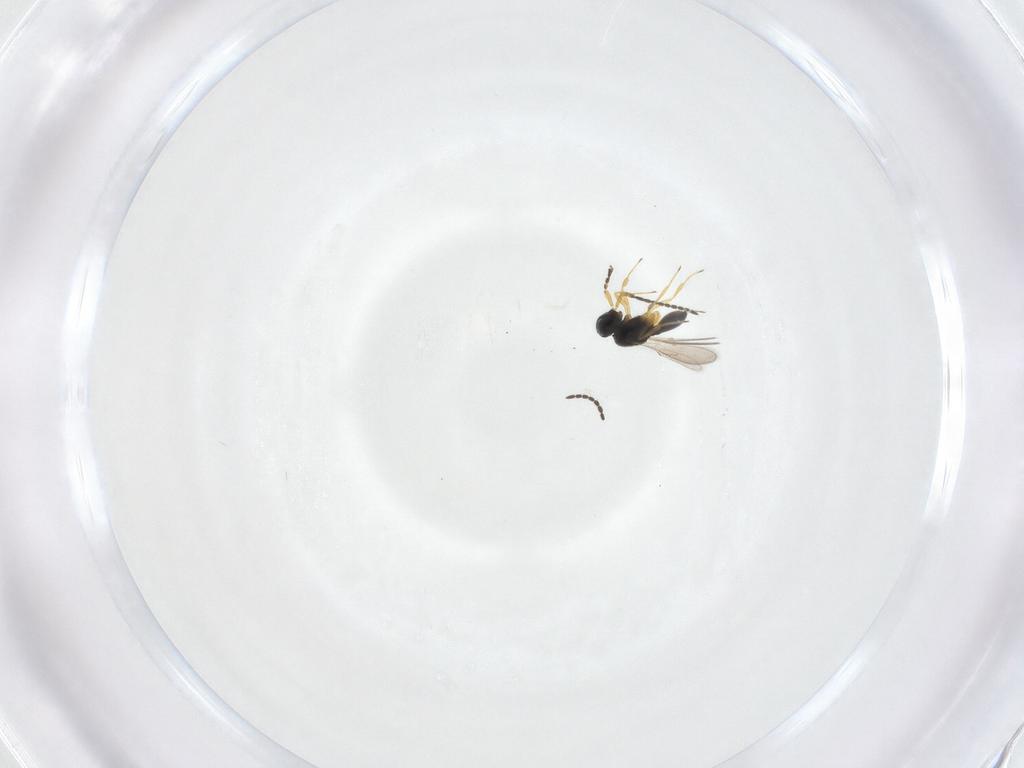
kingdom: Animalia
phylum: Arthropoda
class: Insecta
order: Hymenoptera
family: Scelionidae
